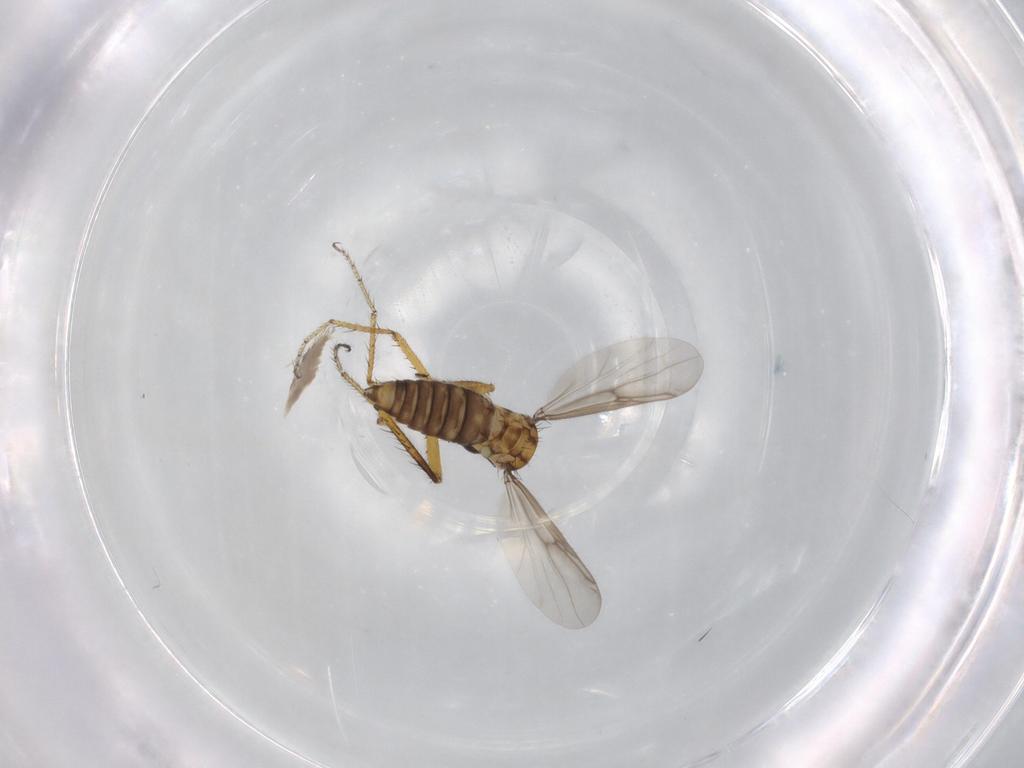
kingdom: Animalia
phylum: Arthropoda
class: Insecta
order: Diptera
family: Ceratopogonidae
